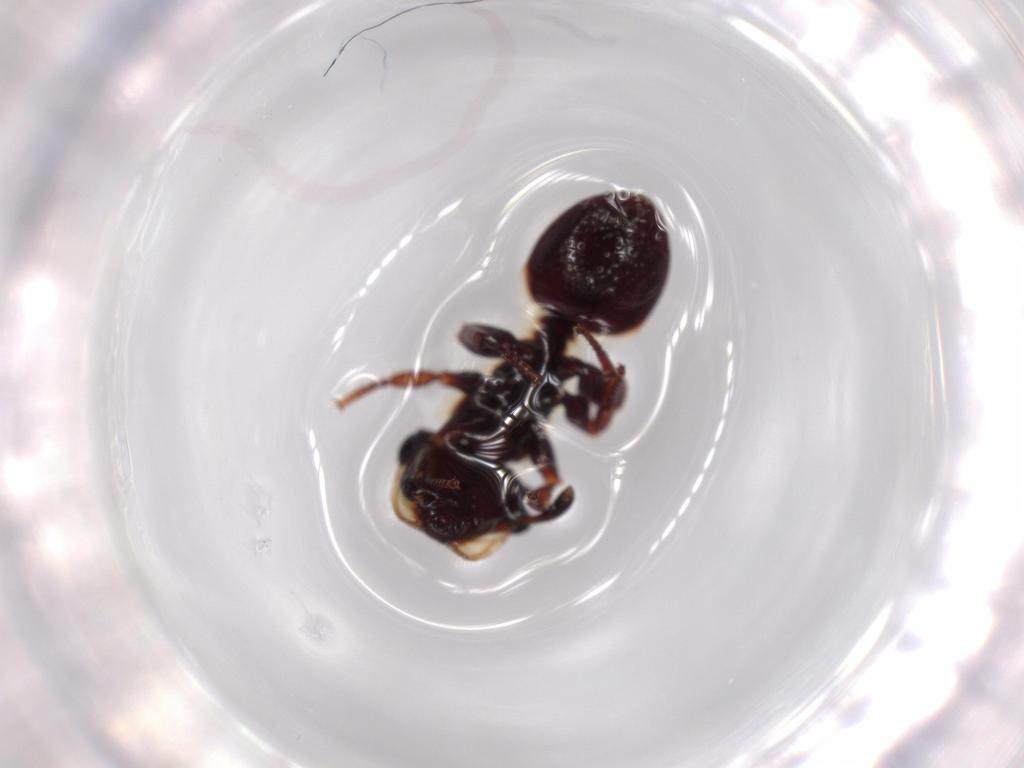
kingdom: Animalia
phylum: Arthropoda
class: Insecta
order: Hymenoptera
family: Formicidae
